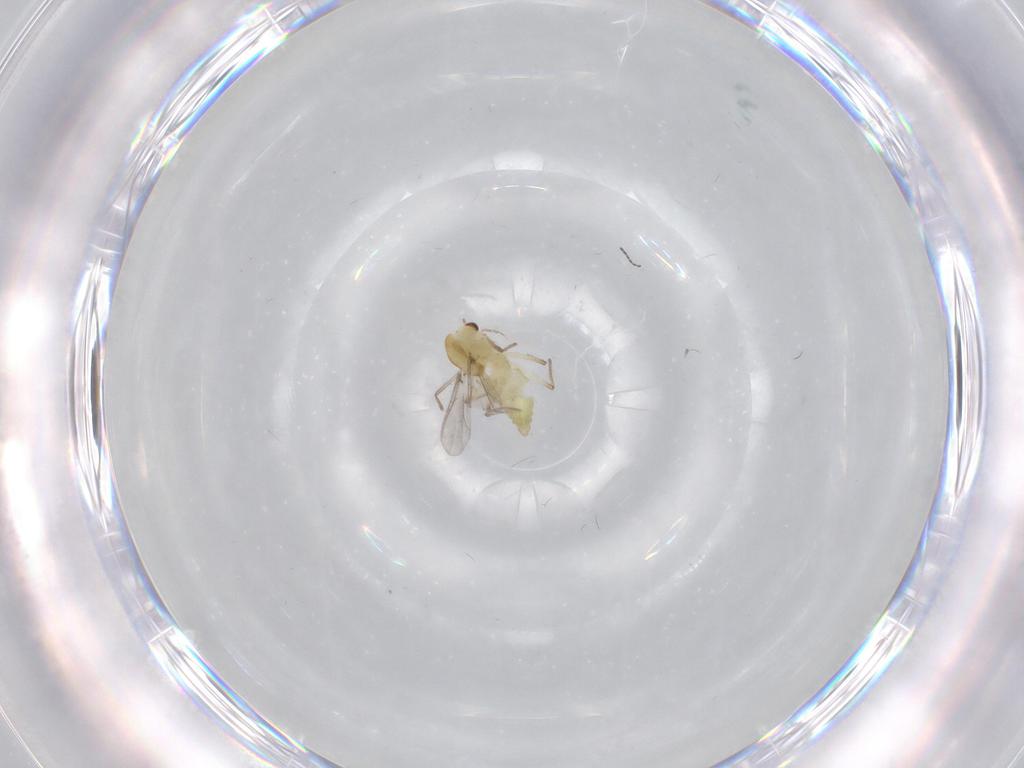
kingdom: Animalia
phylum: Arthropoda
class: Insecta
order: Diptera
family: Chironomidae
